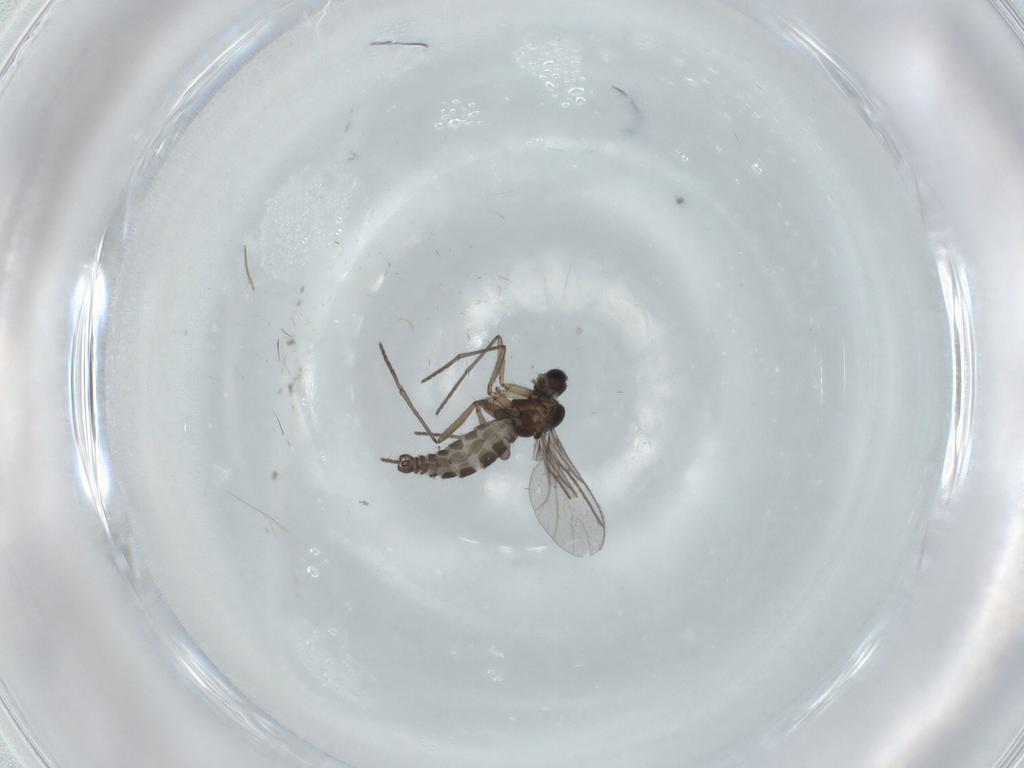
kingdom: Animalia
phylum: Arthropoda
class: Insecta
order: Diptera
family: Cecidomyiidae
